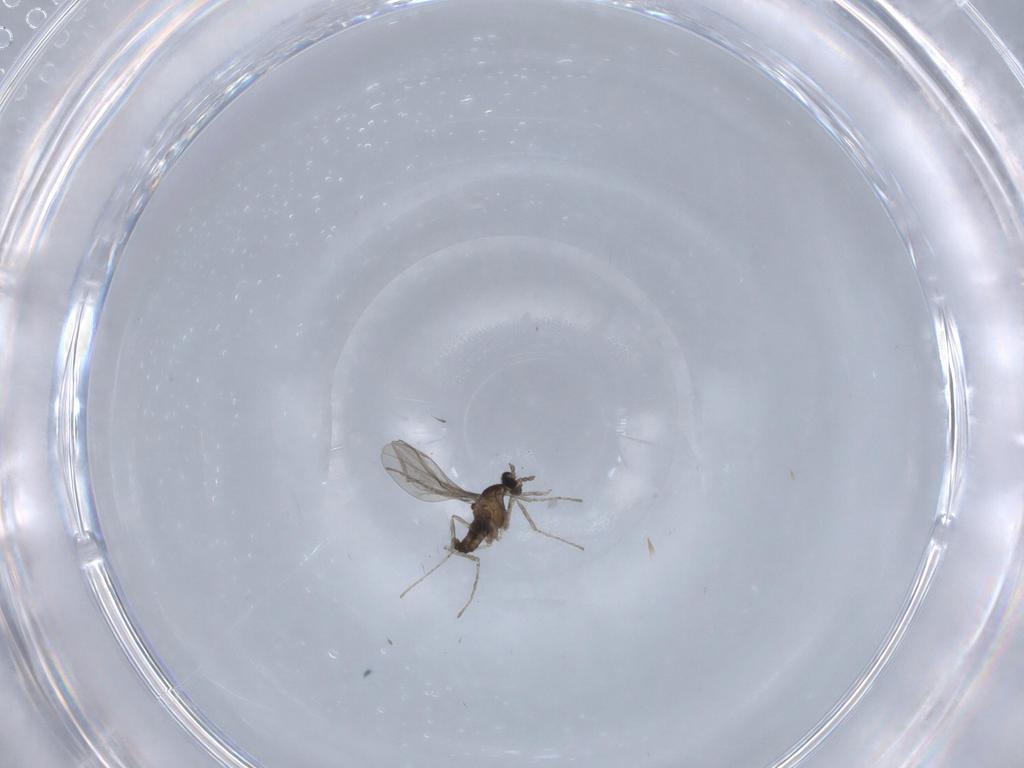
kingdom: Animalia
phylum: Arthropoda
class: Insecta
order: Diptera
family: Cecidomyiidae
